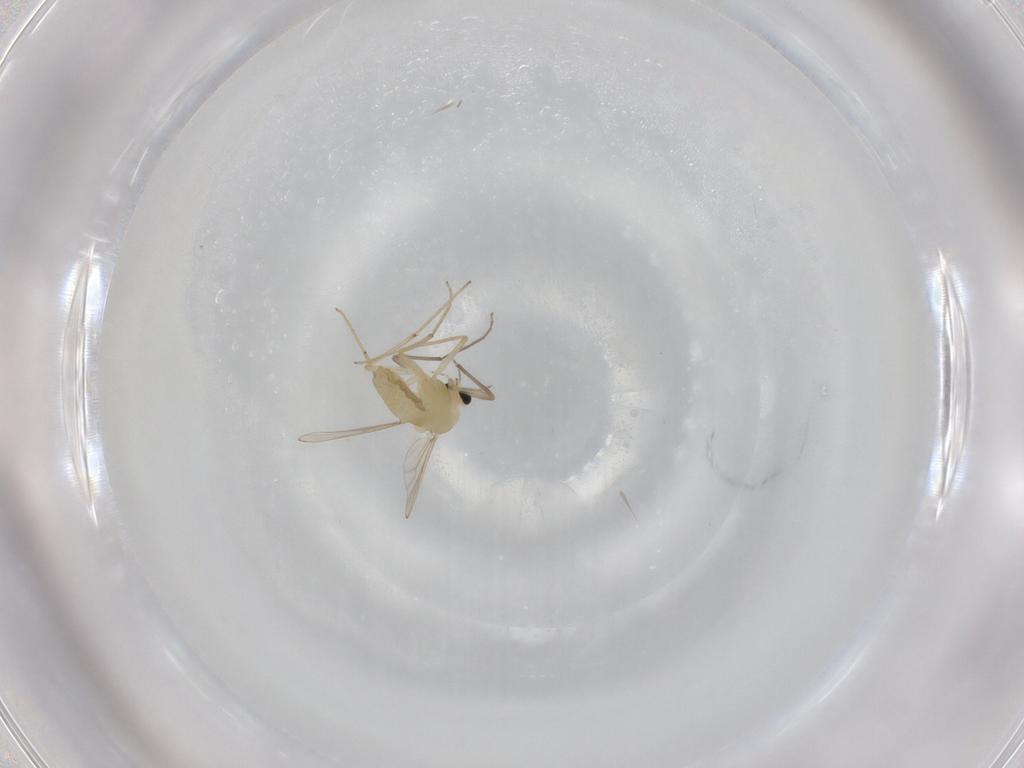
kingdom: Animalia
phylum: Arthropoda
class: Insecta
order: Diptera
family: Chironomidae
